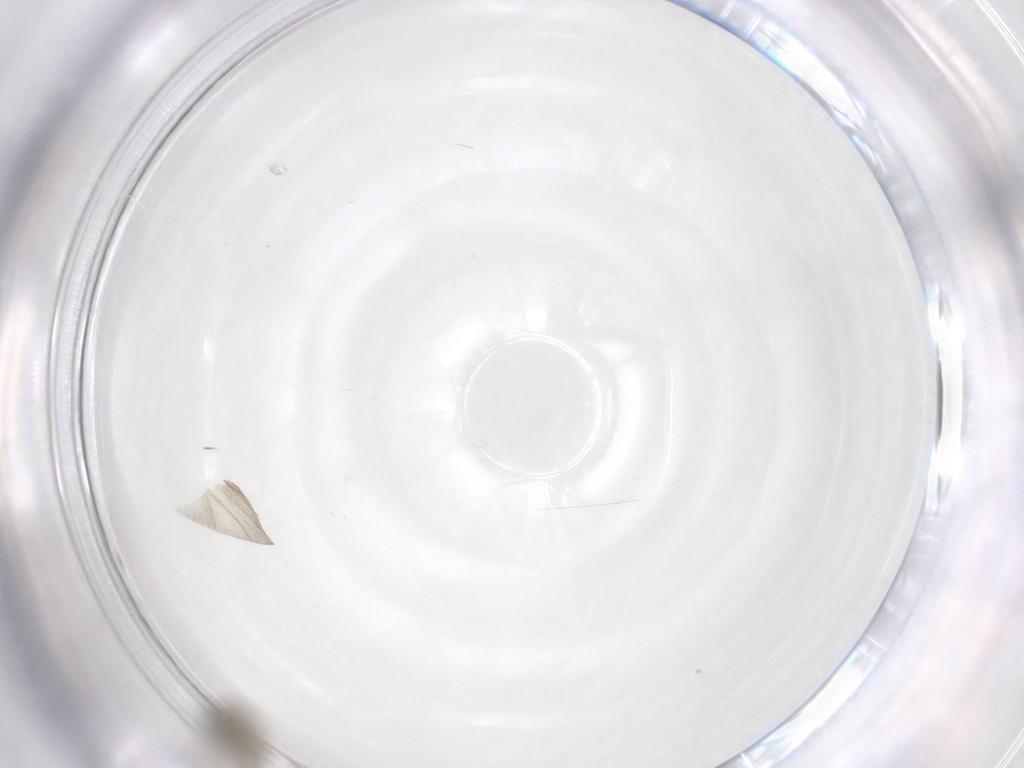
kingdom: Animalia
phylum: Arthropoda
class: Insecta
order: Diptera
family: Cecidomyiidae
